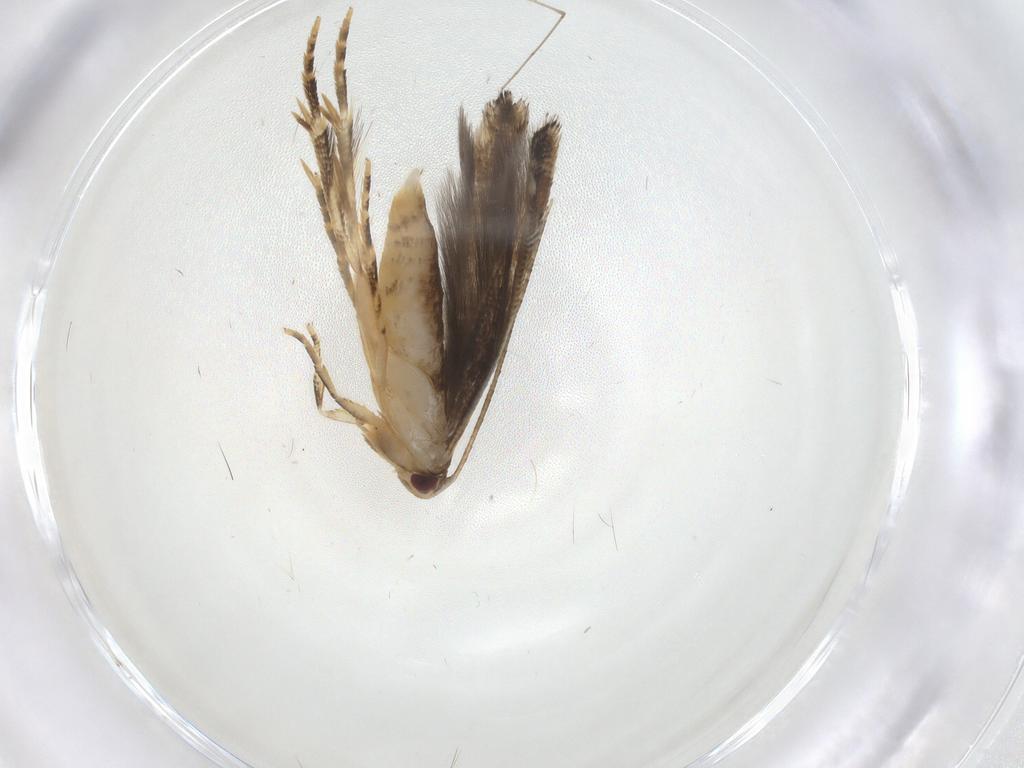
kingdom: Animalia
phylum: Arthropoda
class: Insecta
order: Lepidoptera
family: Momphidae
